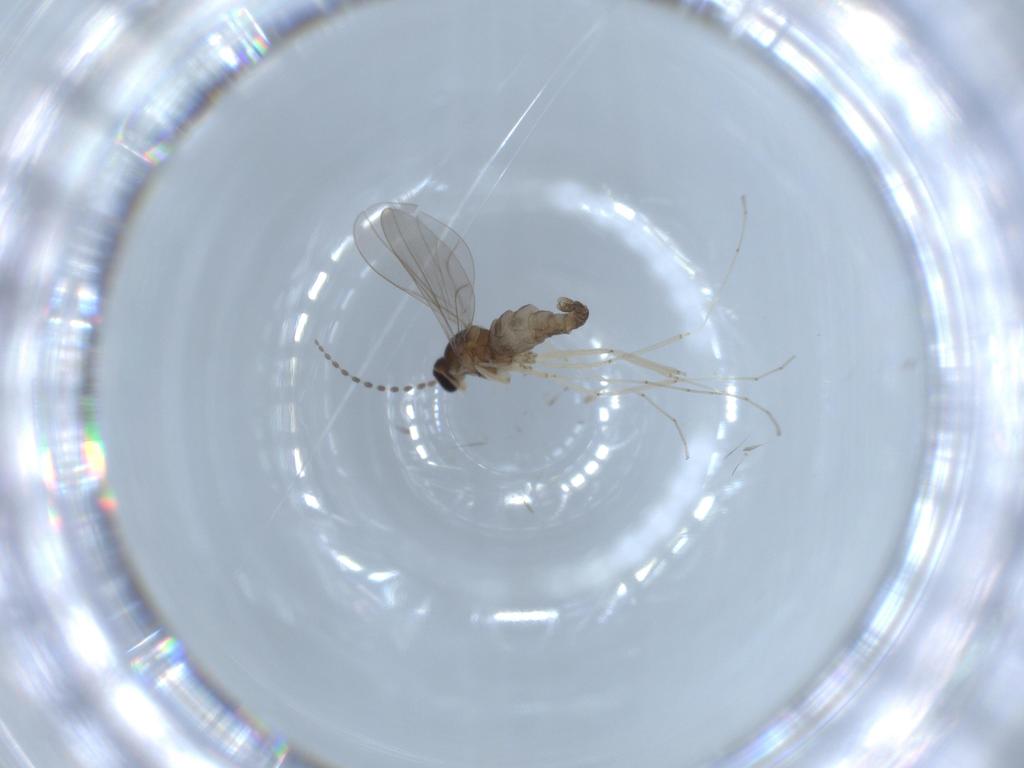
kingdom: Animalia
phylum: Arthropoda
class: Insecta
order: Diptera
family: Cecidomyiidae
